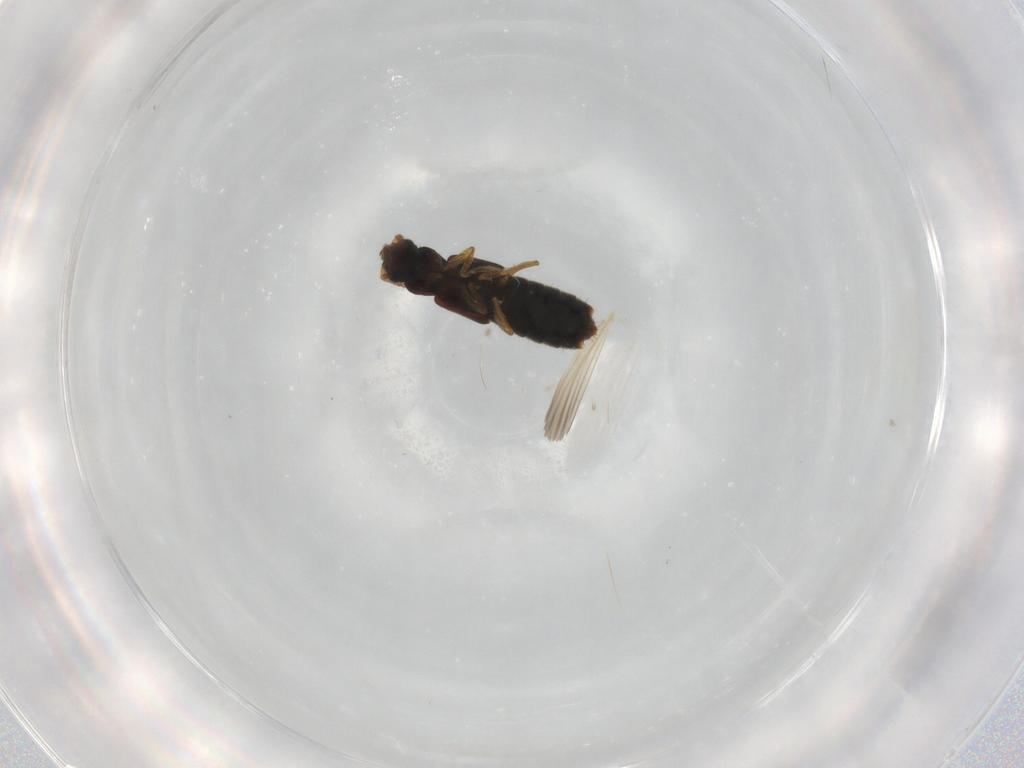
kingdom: Animalia
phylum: Arthropoda
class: Insecta
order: Coleoptera
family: Staphylinidae
